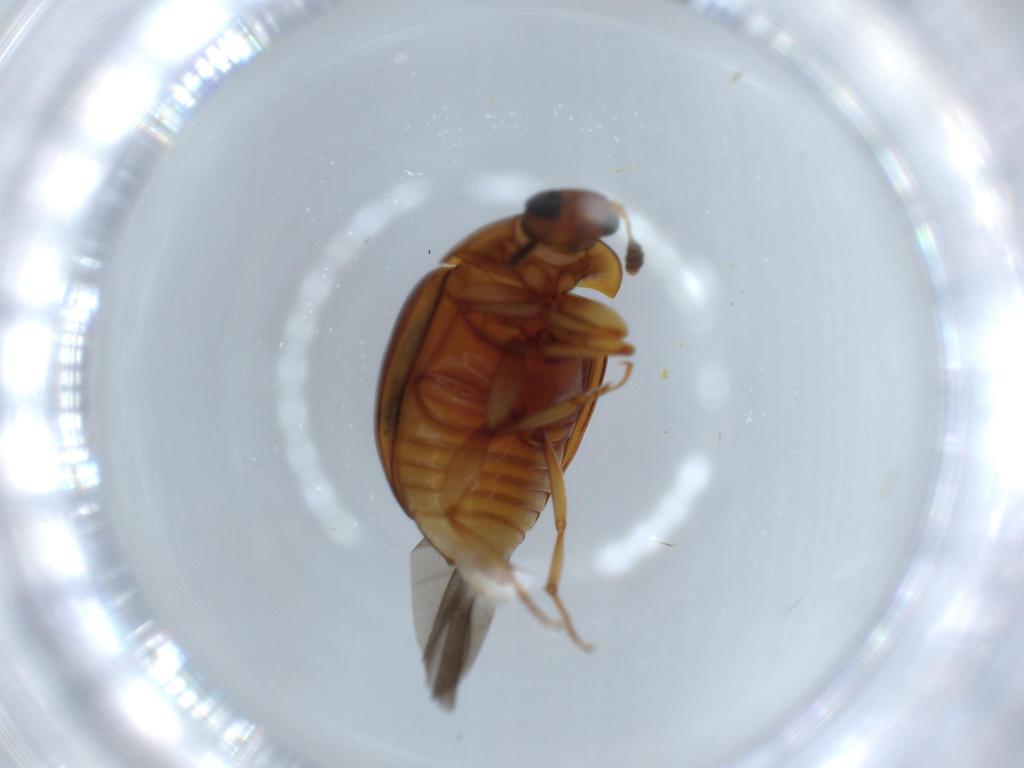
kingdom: Animalia
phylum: Arthropoda
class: Insecta
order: Coleoptera
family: Nitidulidae
